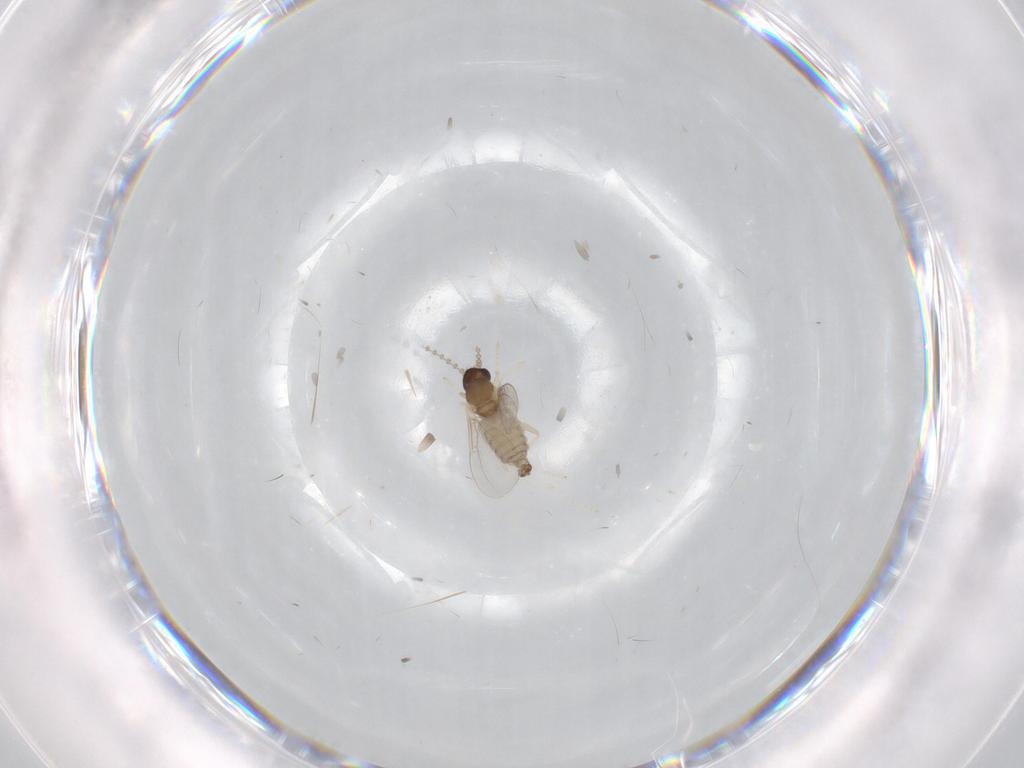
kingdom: Animalia
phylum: Arthropoda
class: Insecta
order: Diptera
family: Cecidomyiidae
